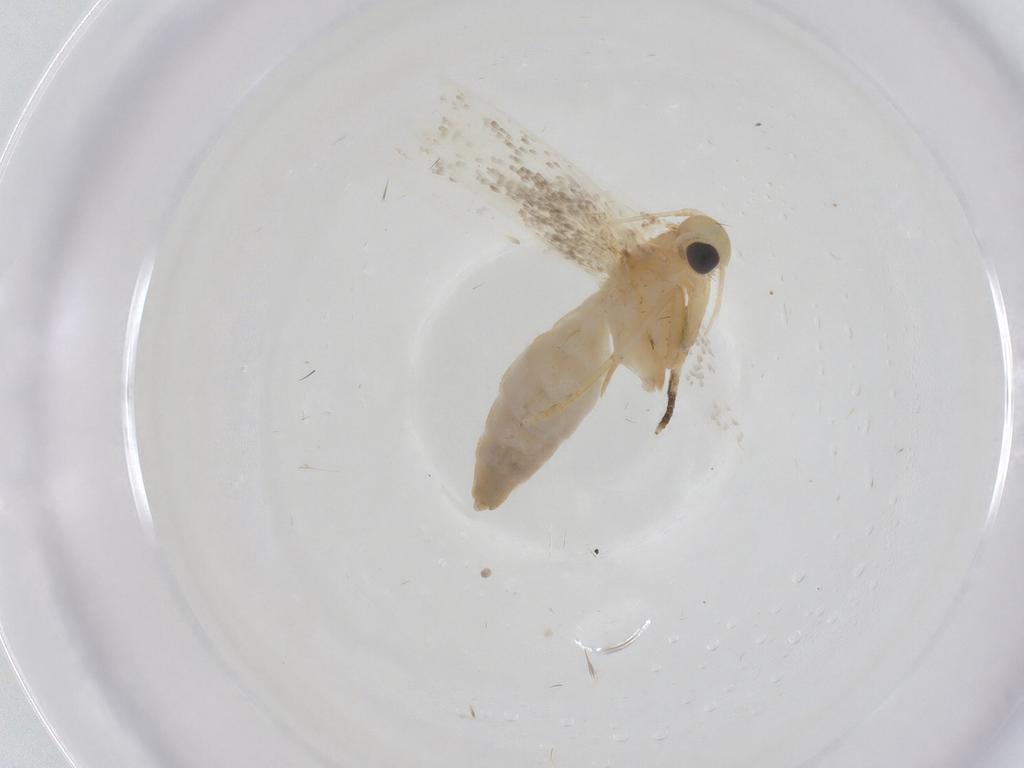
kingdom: Animalia
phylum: Arthropoda
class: Insecta
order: Lepidoptera
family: Erebidae
